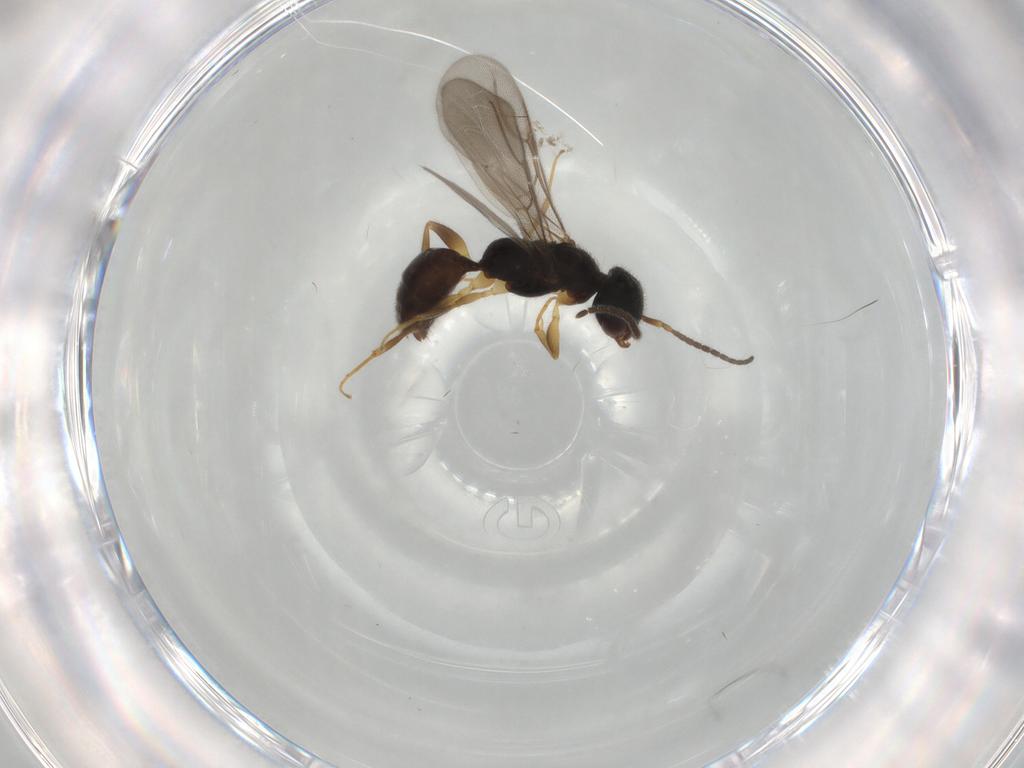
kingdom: Animalia
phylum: Arthropoda
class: Insecta
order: Hymenoptera
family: Bethylidae
